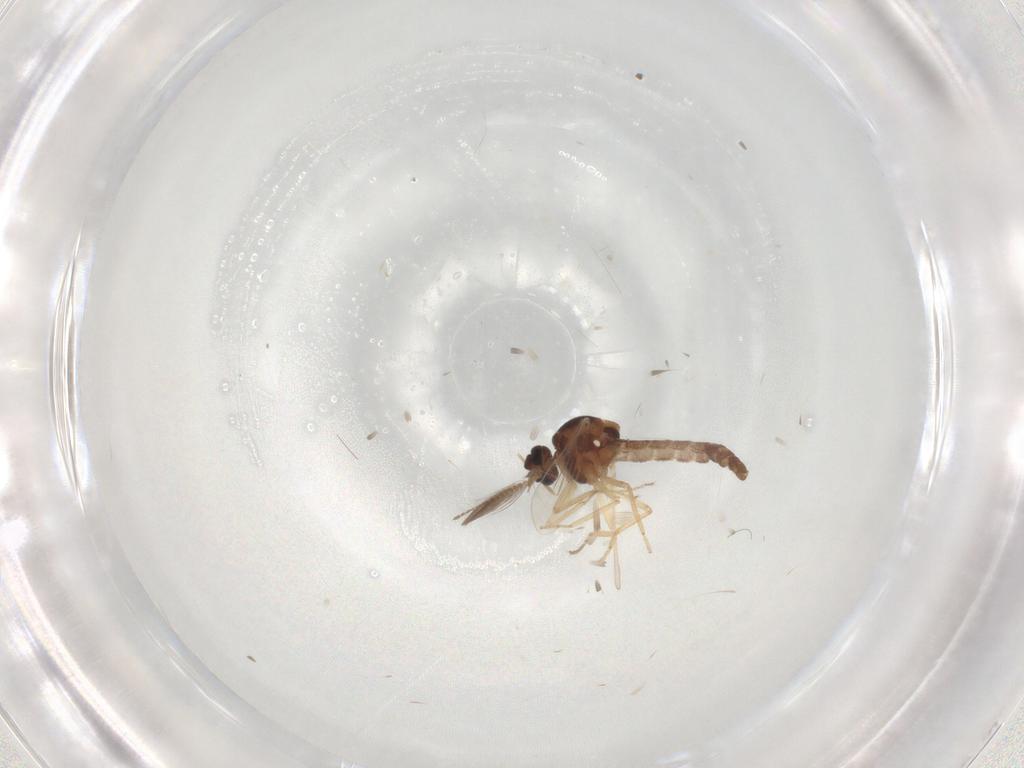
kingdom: Animalia
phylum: Arthropoda
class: Insecta
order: Diptera
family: Ceratopogonidae
